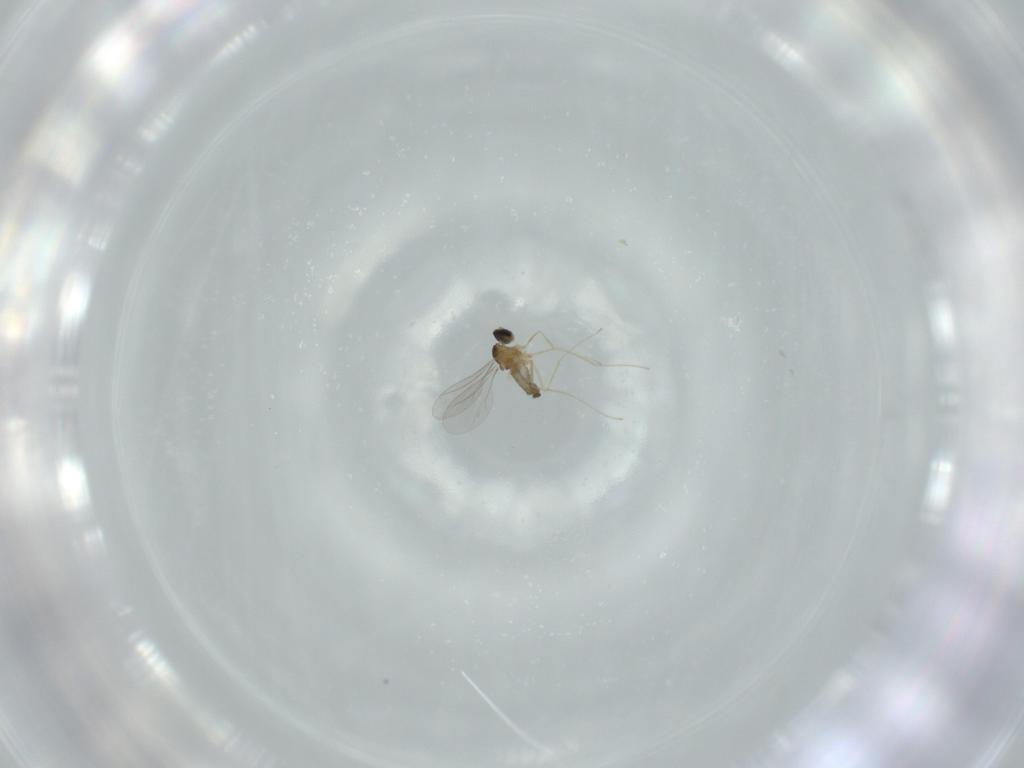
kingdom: Animalia
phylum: Arthropoda
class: Insecta
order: Diptera
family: Cecidomyiidae
